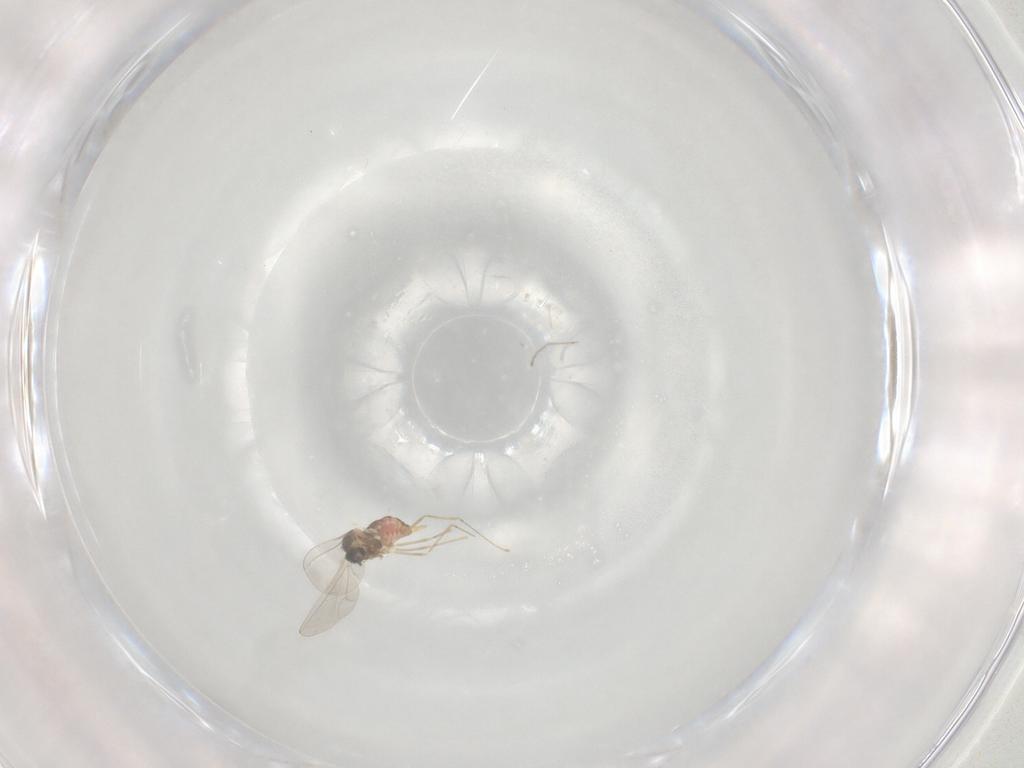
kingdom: Animalia
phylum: Arthropoda
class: Insecta
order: Diptera
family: Cecidomyiidae
